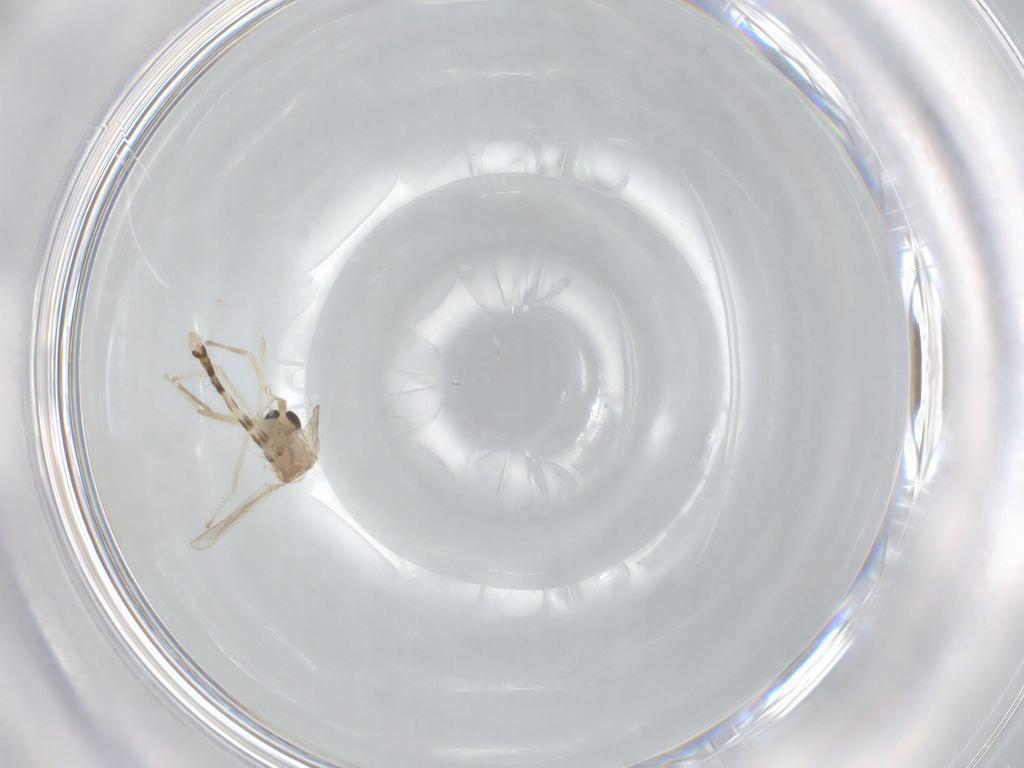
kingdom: Animalia
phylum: Arthropoda
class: Insecta
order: Diptera
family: Chironomidae
